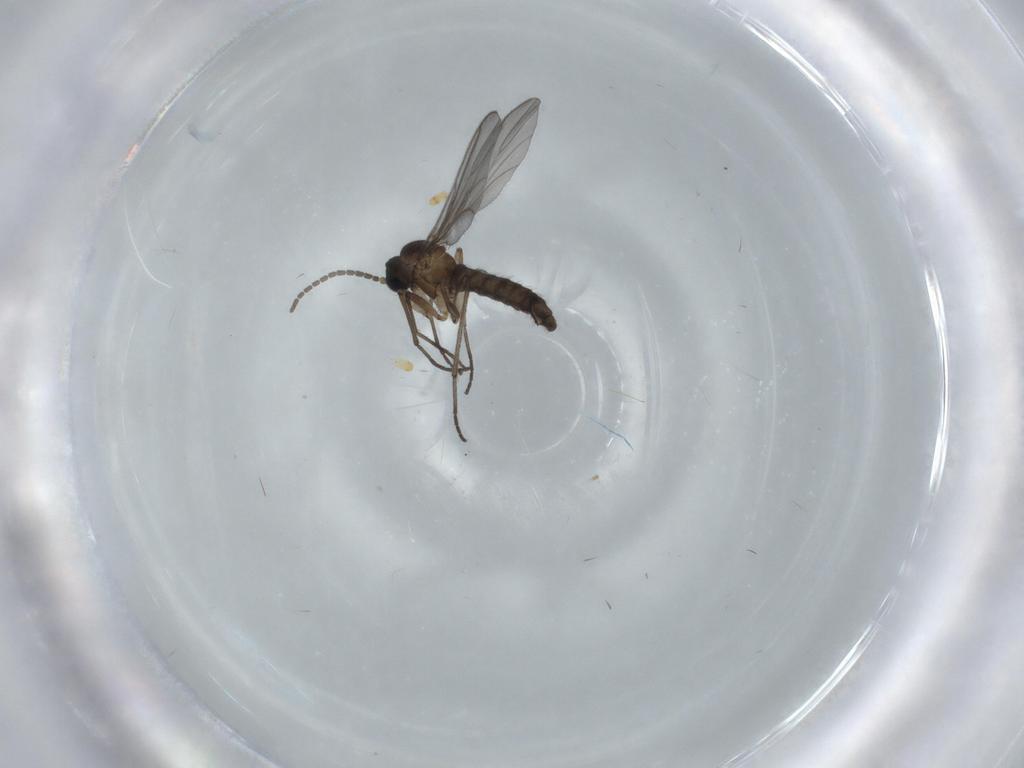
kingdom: Animalia
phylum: Arthropoda
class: Insecta
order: Diptera
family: Sciaridae
